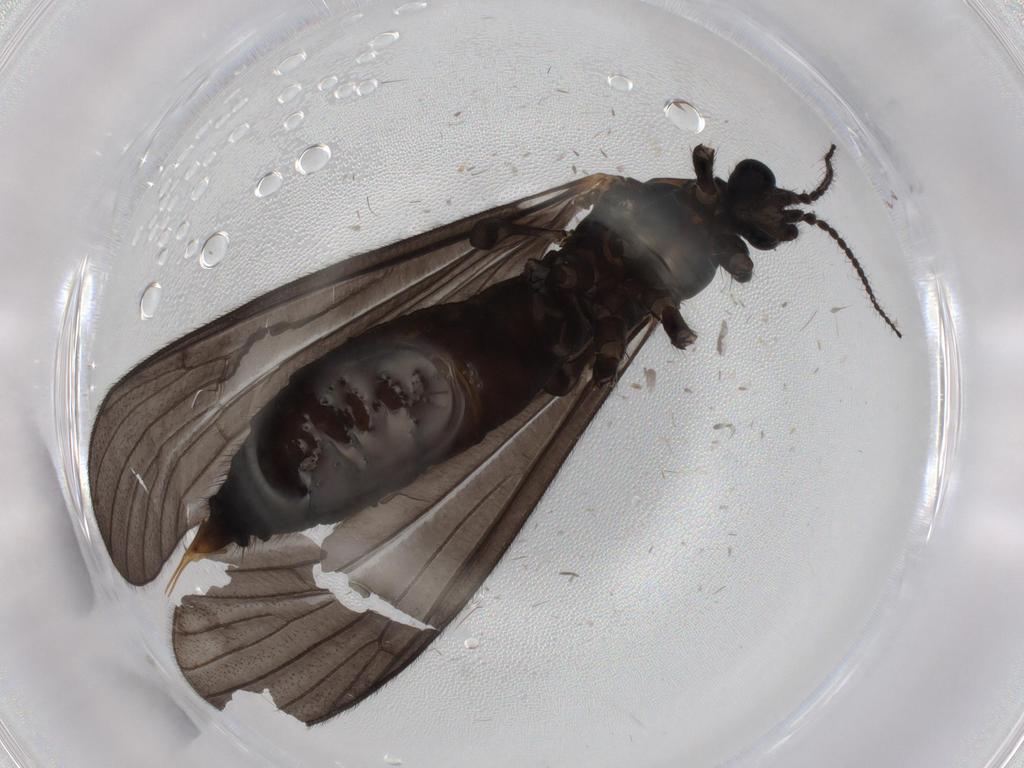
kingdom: Animalia
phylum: Arthropoda
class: Insecta
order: Diptera
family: Limoniidae
